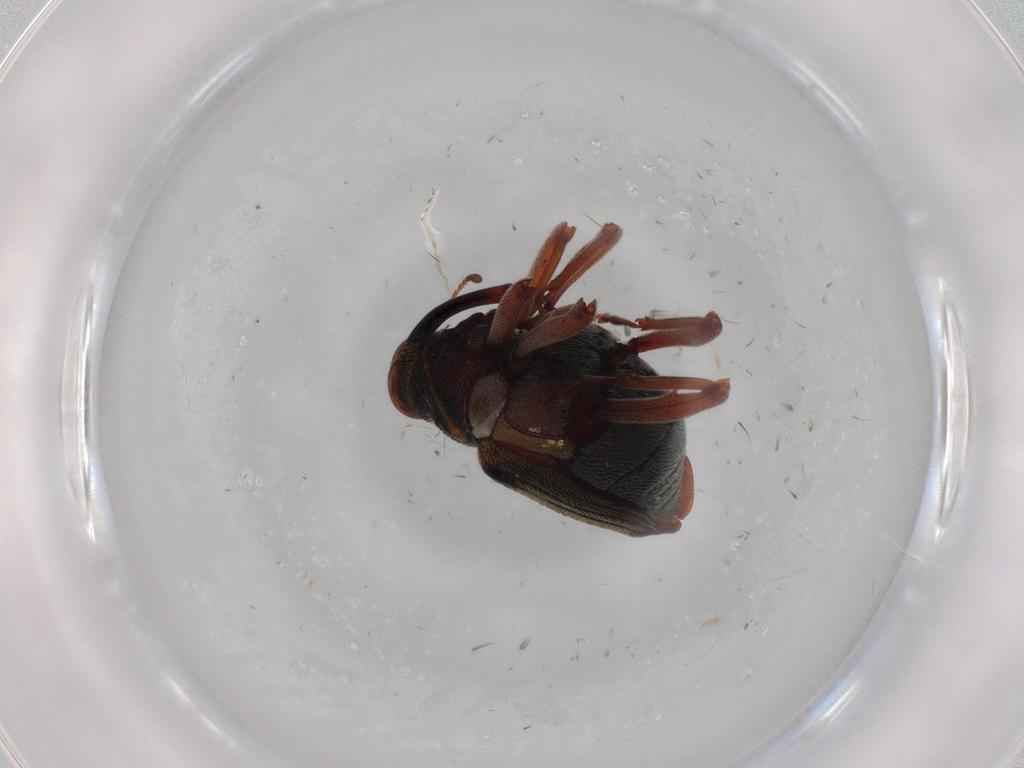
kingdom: Animalia
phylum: Arthropoda
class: Insecta
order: Coleoptera
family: Curculionidae
